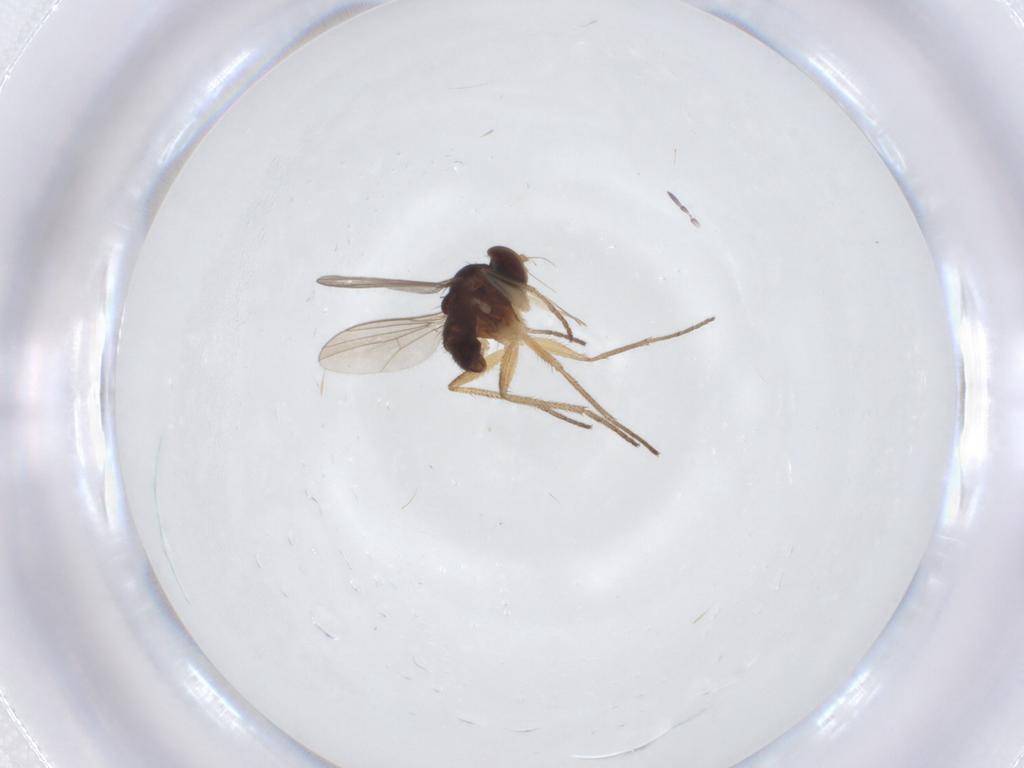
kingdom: Animalia
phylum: Arthropoda
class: Insecta
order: Diptera
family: Dolichopodidae
